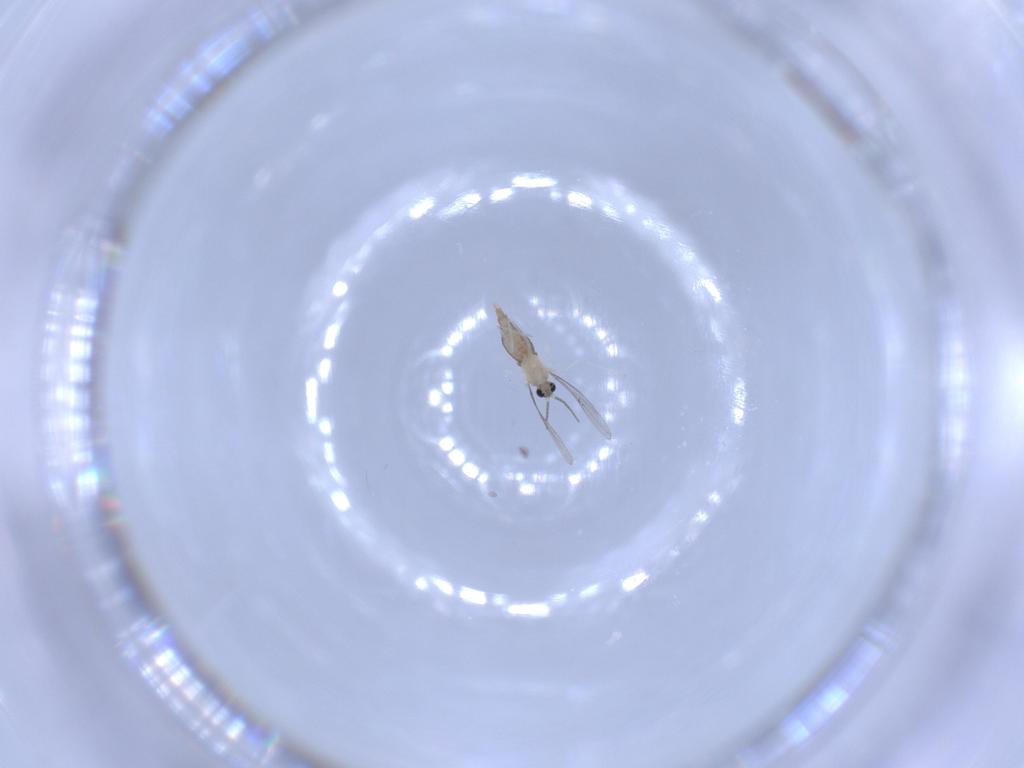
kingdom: Animalia
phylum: Arthropoda
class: Insecta
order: Diptera
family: Cecidomyiidae
